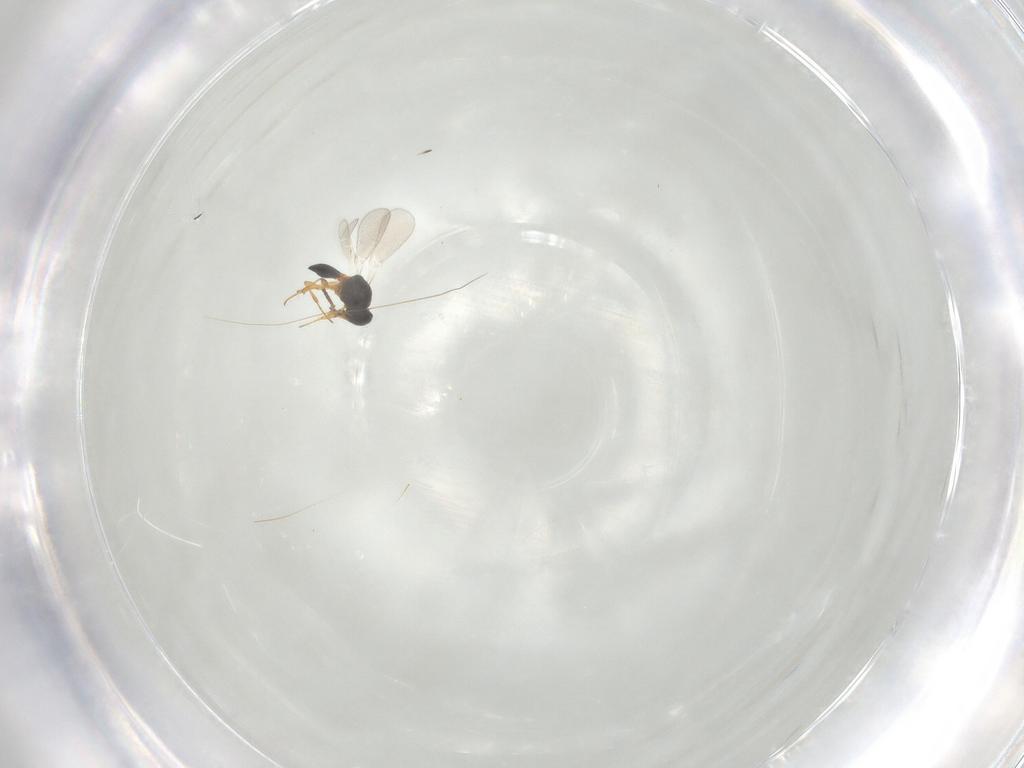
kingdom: Animalia
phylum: Arthropoda
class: Insecta
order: Hymenoptera
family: Platygastridae
